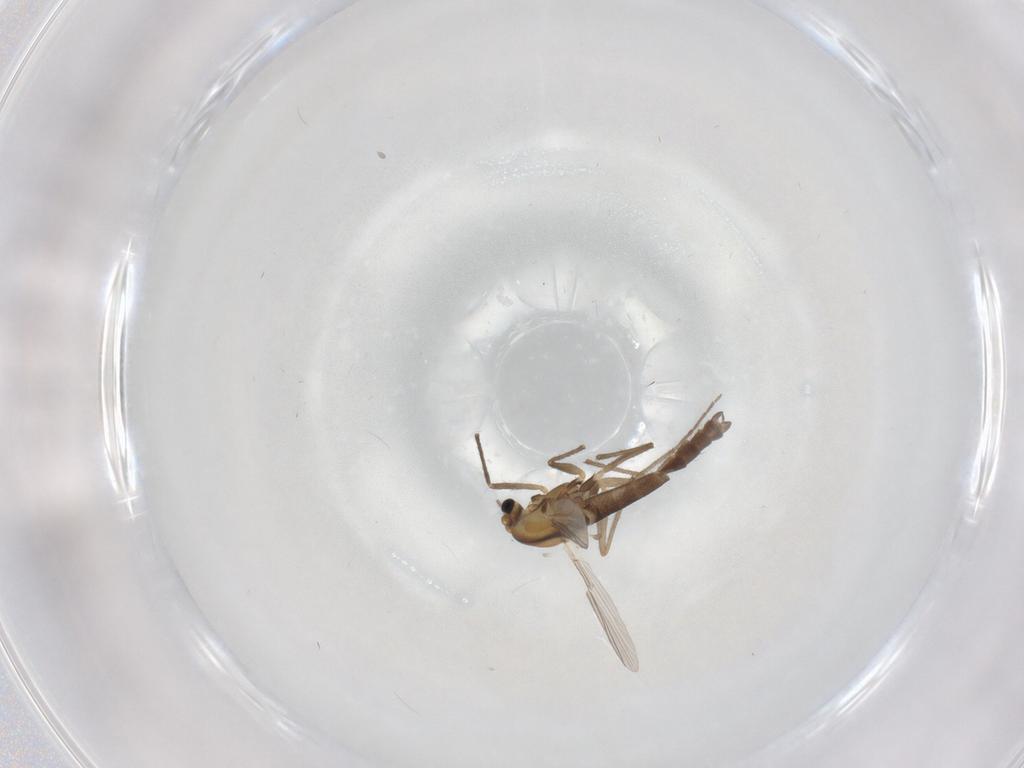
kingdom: Animalia
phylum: Arthropoda
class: Insecta
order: Diptera
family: Chironomidae
